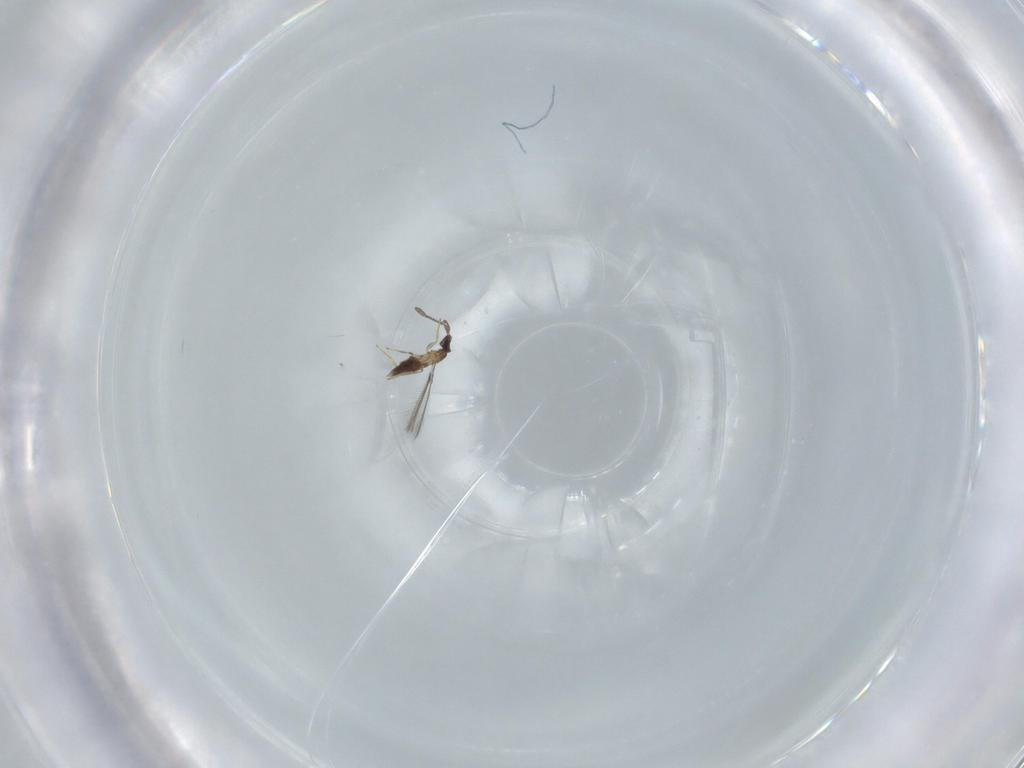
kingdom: Animalia
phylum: Arthropoda
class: Insecta
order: Hymenoptera
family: Mymaridae
